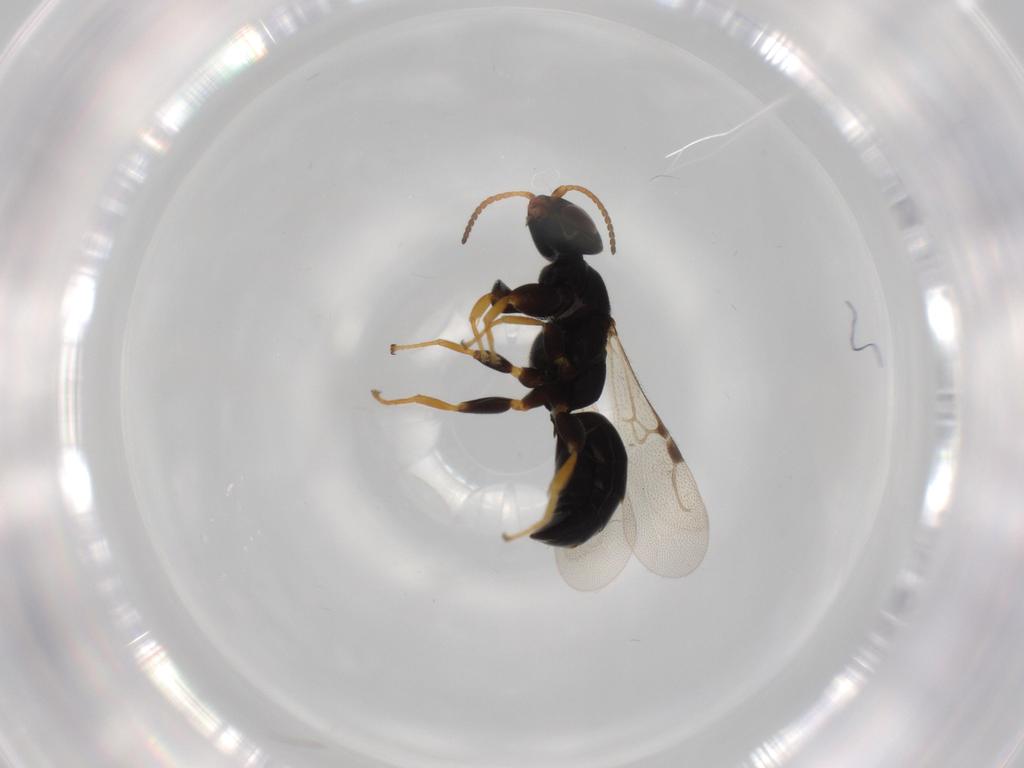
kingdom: Animalia
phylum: Arthropoda
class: Insecta
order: Hymenoptera
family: Bethylidae
